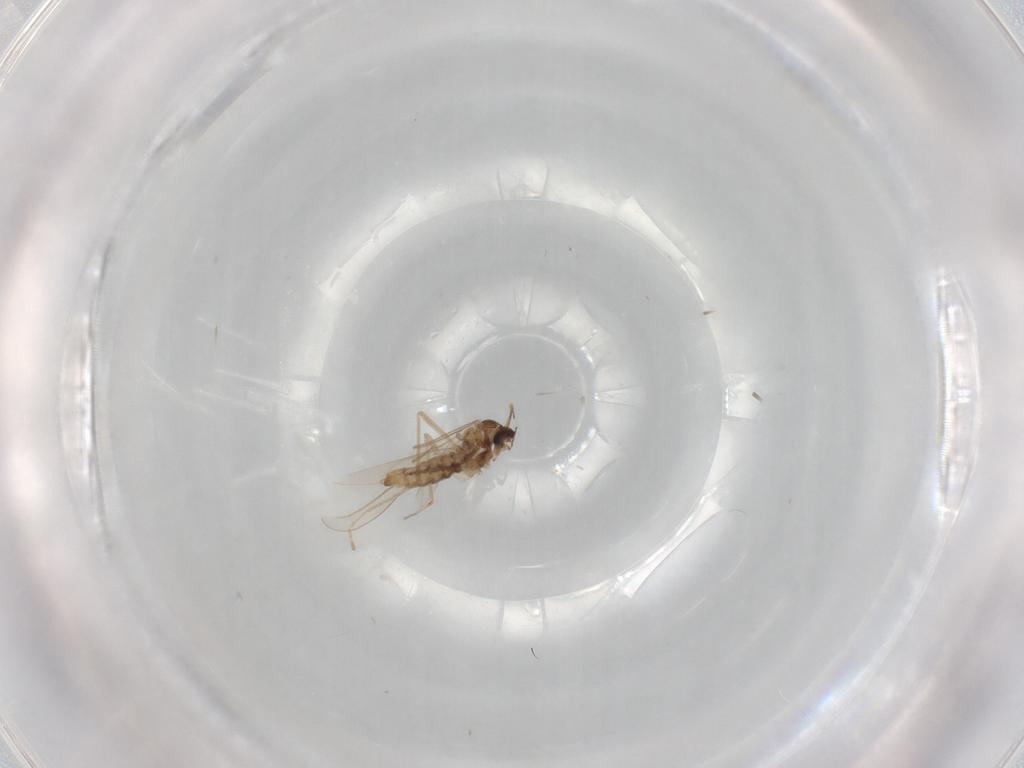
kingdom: Animalia
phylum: Arthropoda
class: Insecta
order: Diptera
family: Cecidomyiidae
